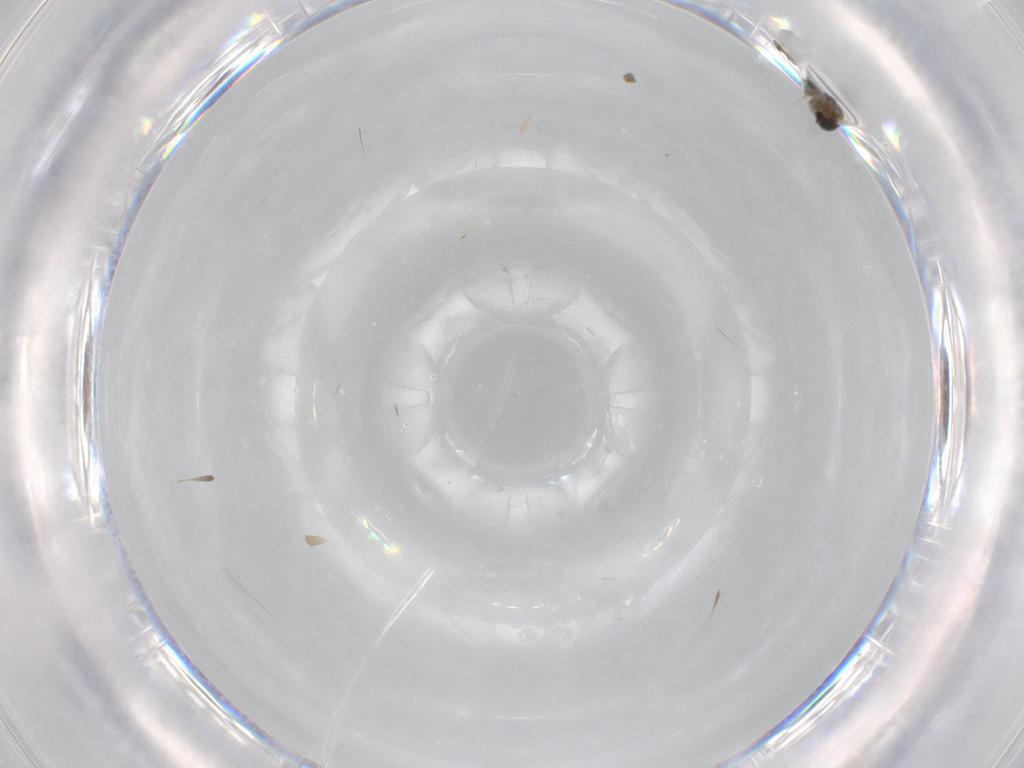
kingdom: Animalia
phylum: Arthropoda
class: Insecta
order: Diptera
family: Chironomidae
